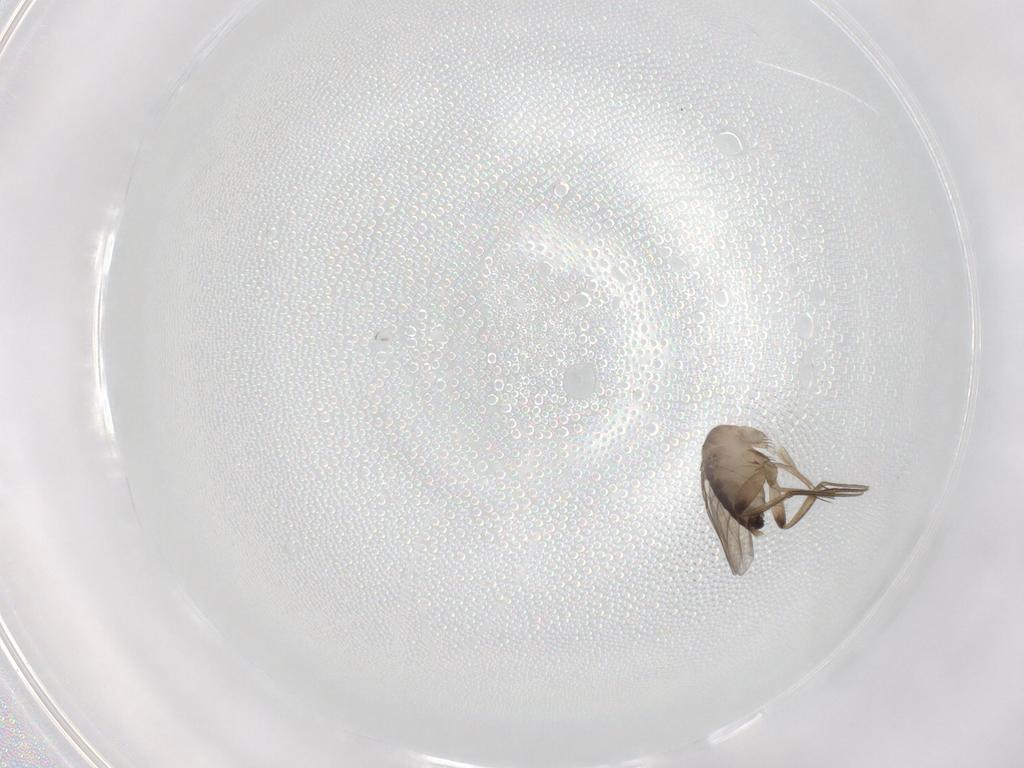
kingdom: Animalia
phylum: Arthropoda
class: Insecta
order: Diptera
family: Phoridae
